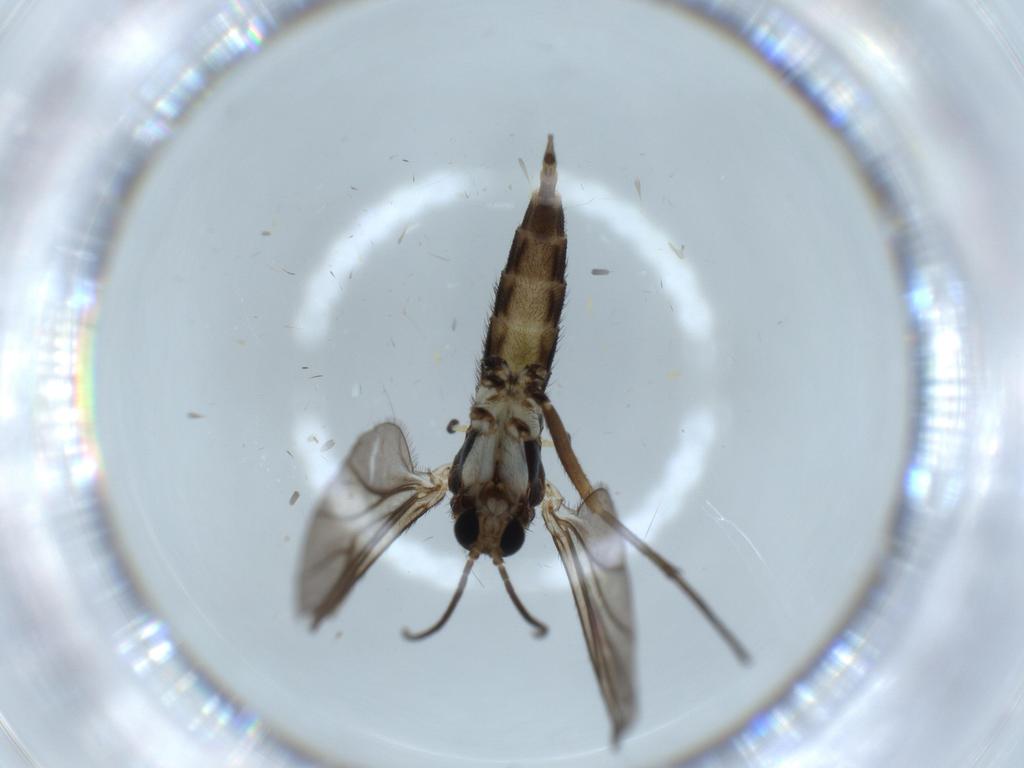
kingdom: Animalia
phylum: Arthropoda
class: Insecta
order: Diptera
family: Sciaridae
